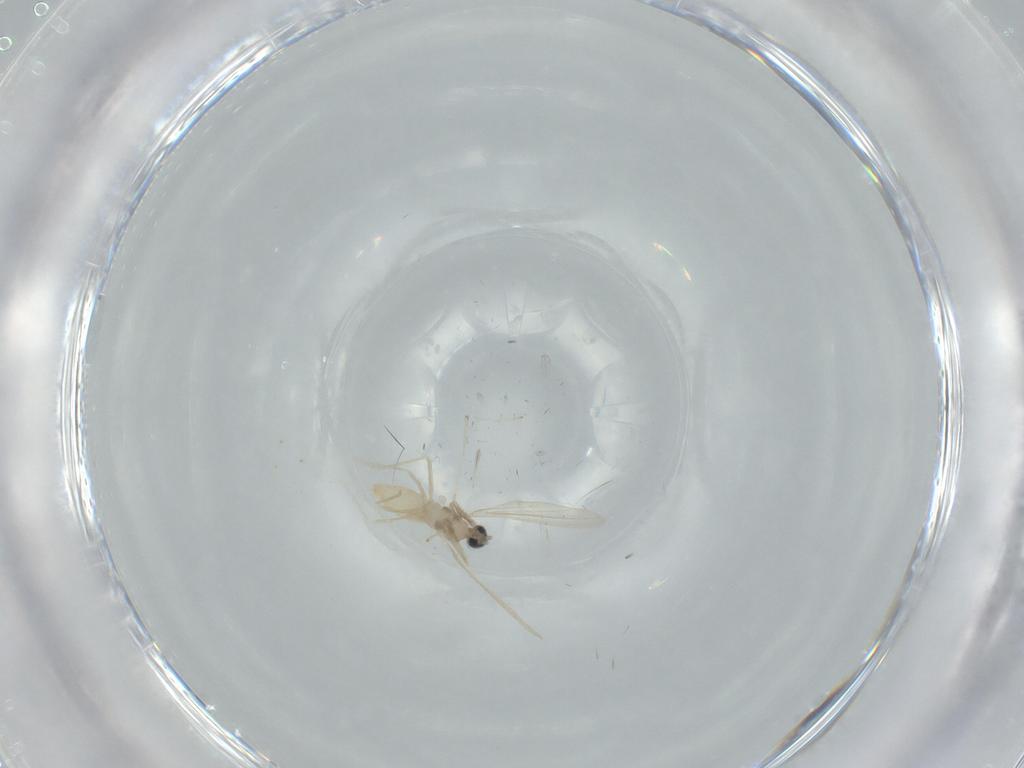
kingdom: Animalia
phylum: Arthropoda
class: Insecta
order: Diptera
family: Cecidomyiidae
